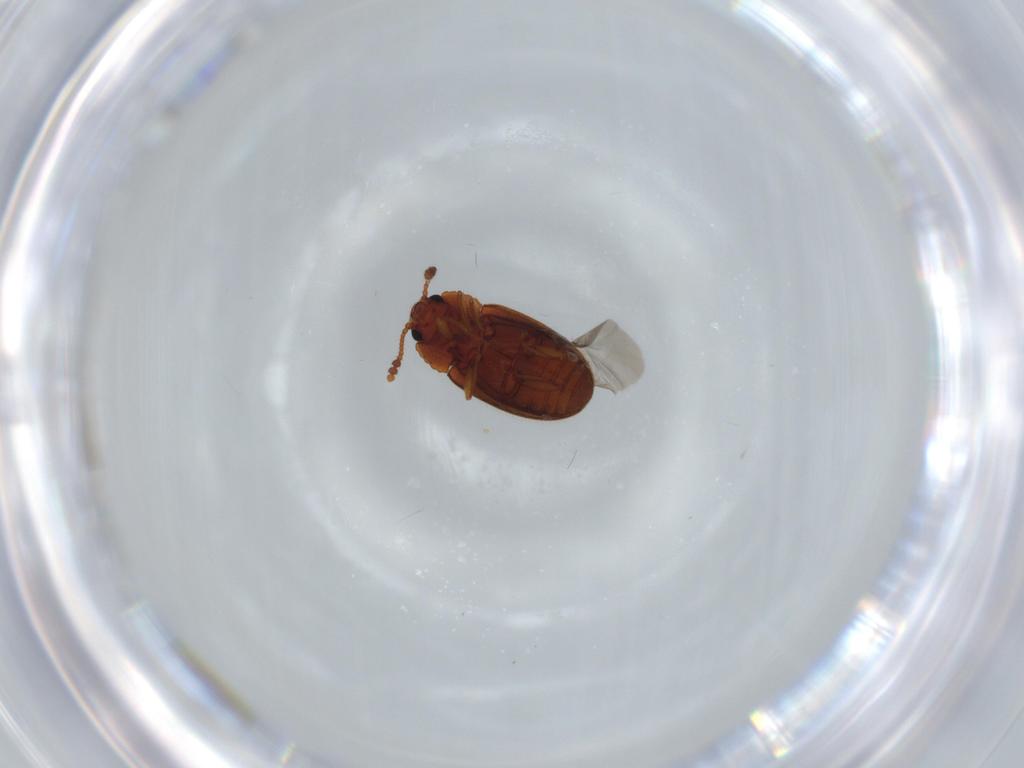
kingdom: Animalia
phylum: Arthropoda
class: Insecta
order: Coleoptera
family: Erotylidae
